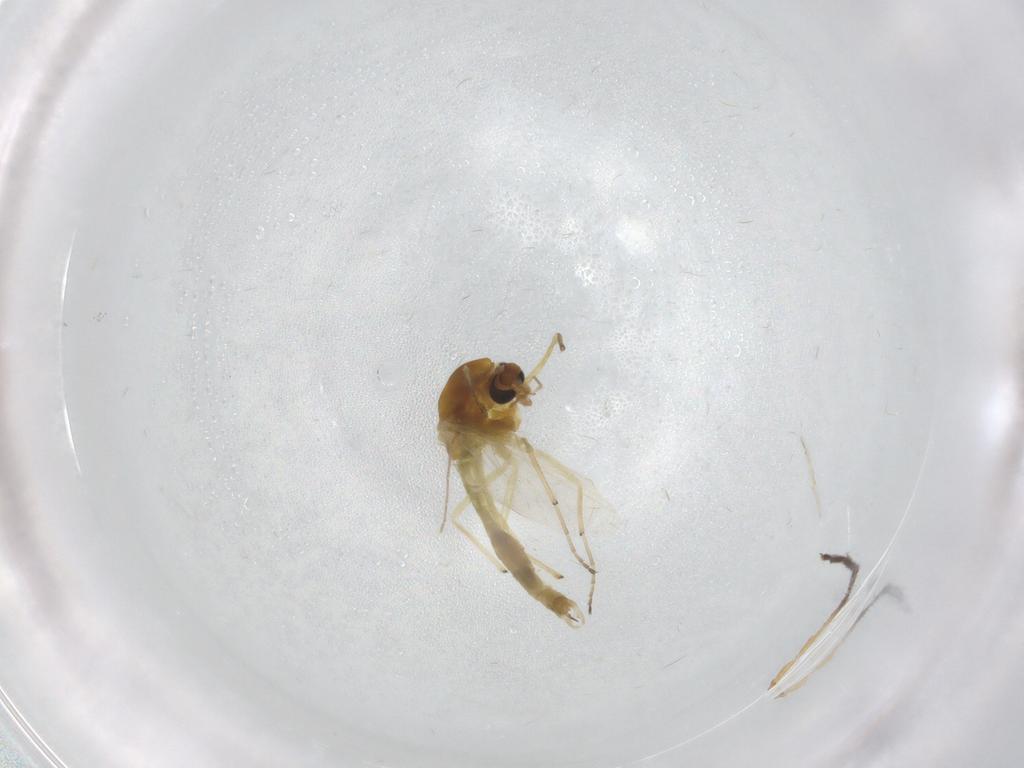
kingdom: Animalia
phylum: Arthropoda
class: Insecta
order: Diptera
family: Chironomidae
